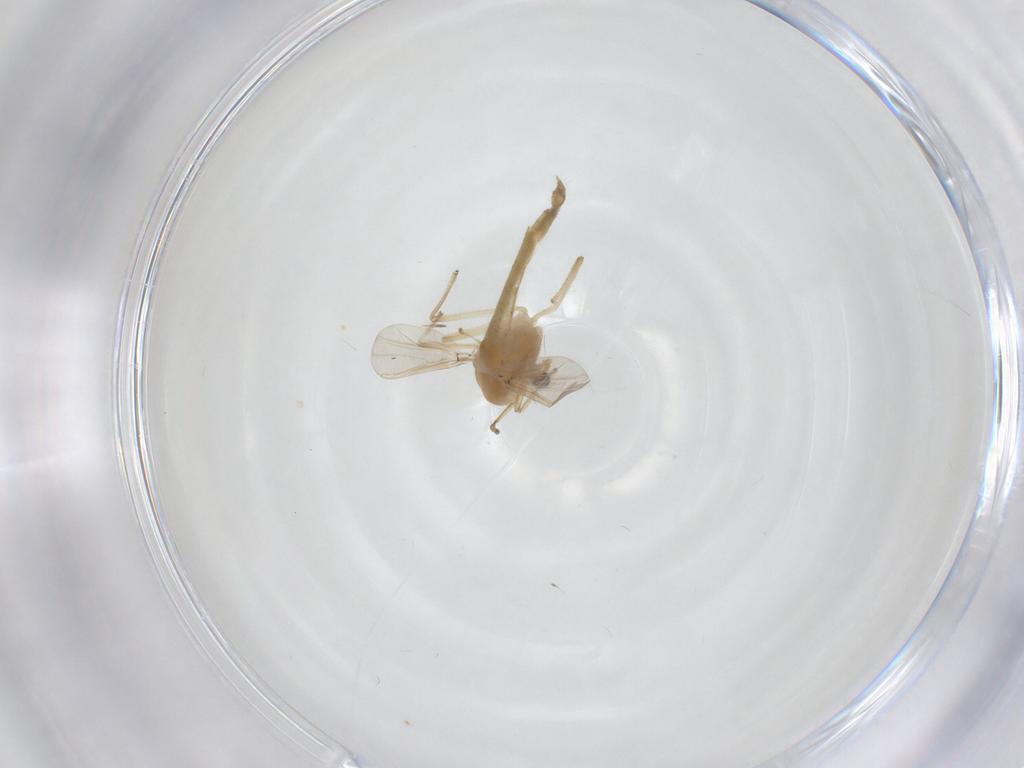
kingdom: Animalia
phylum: Arthropoda
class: Insecta
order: Diptera
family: Chironomidae
